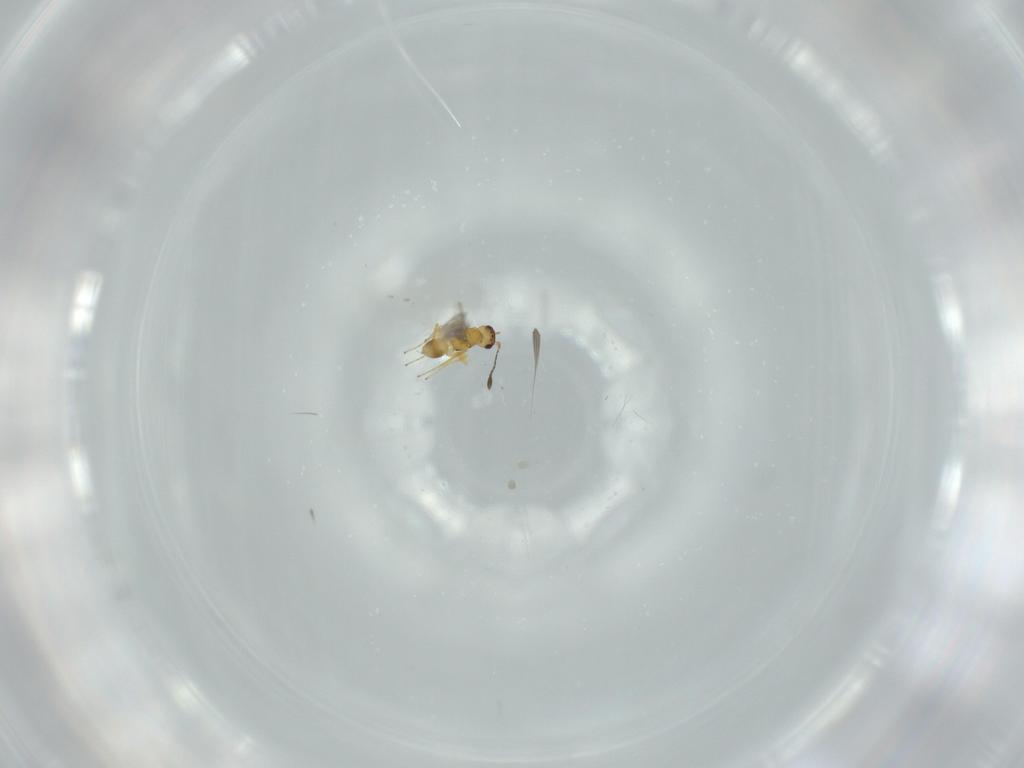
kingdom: Animalia
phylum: Arthropoda
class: Insecta
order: Hymenoptera
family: Mymaridae
